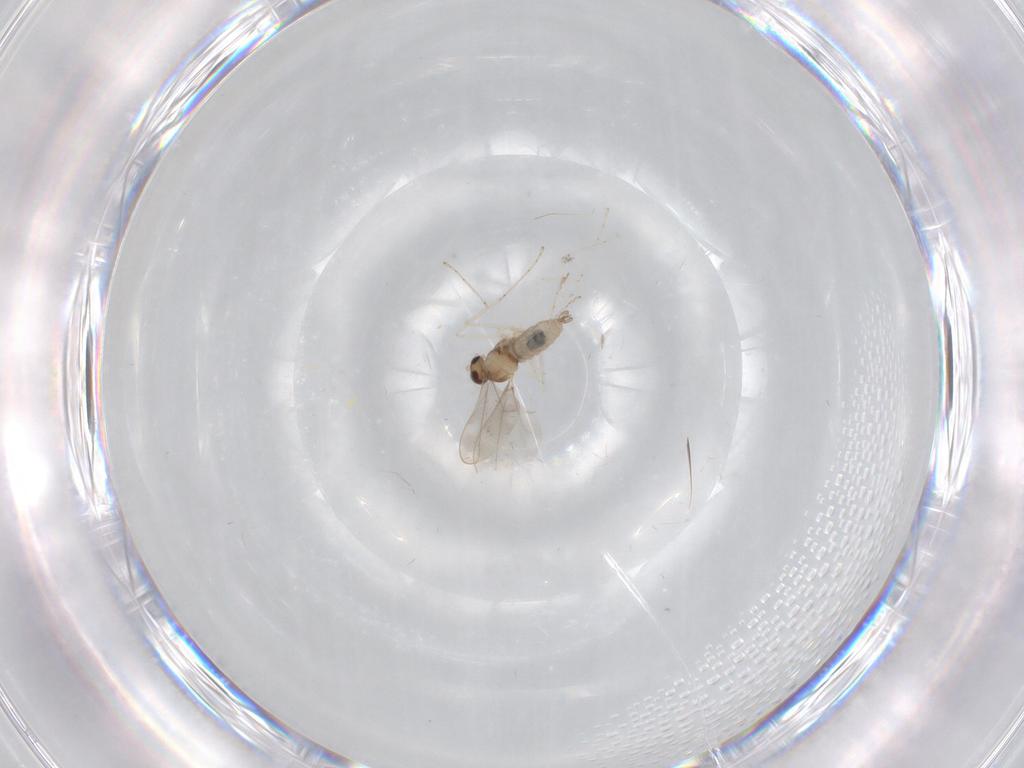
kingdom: Animalia
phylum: Arthropoda
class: Insecta
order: Diptera
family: Cecidomyiidae
